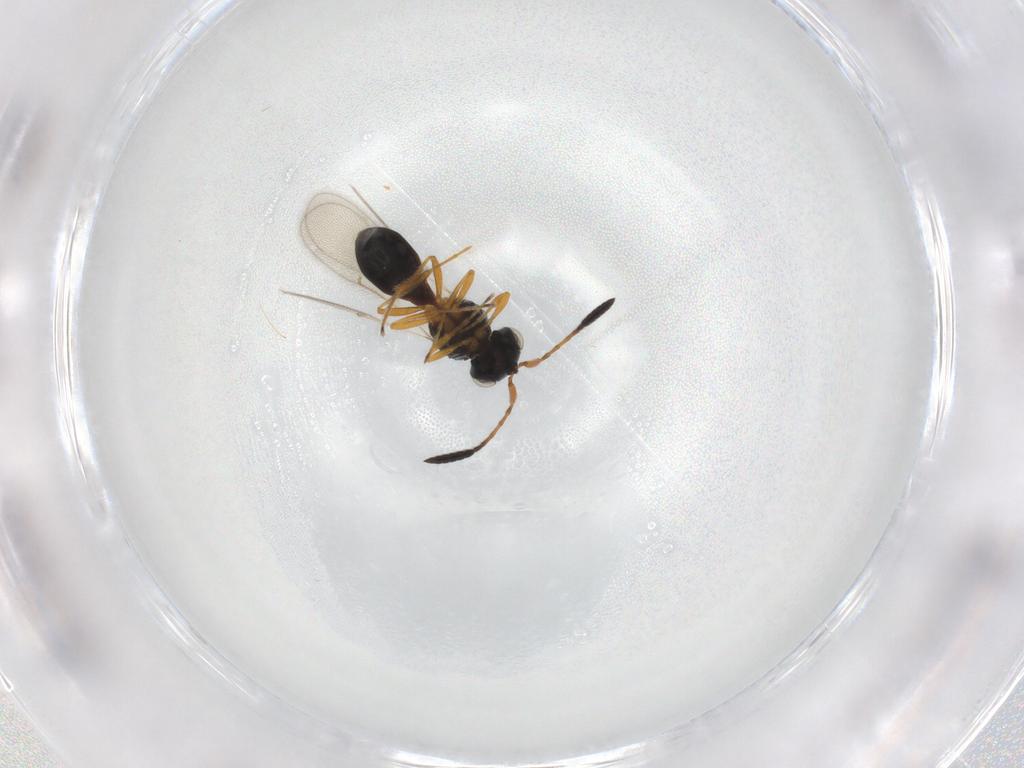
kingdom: Animalia
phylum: Arthropoda
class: Insecta
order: Hymenoptera
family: Scelionidae
